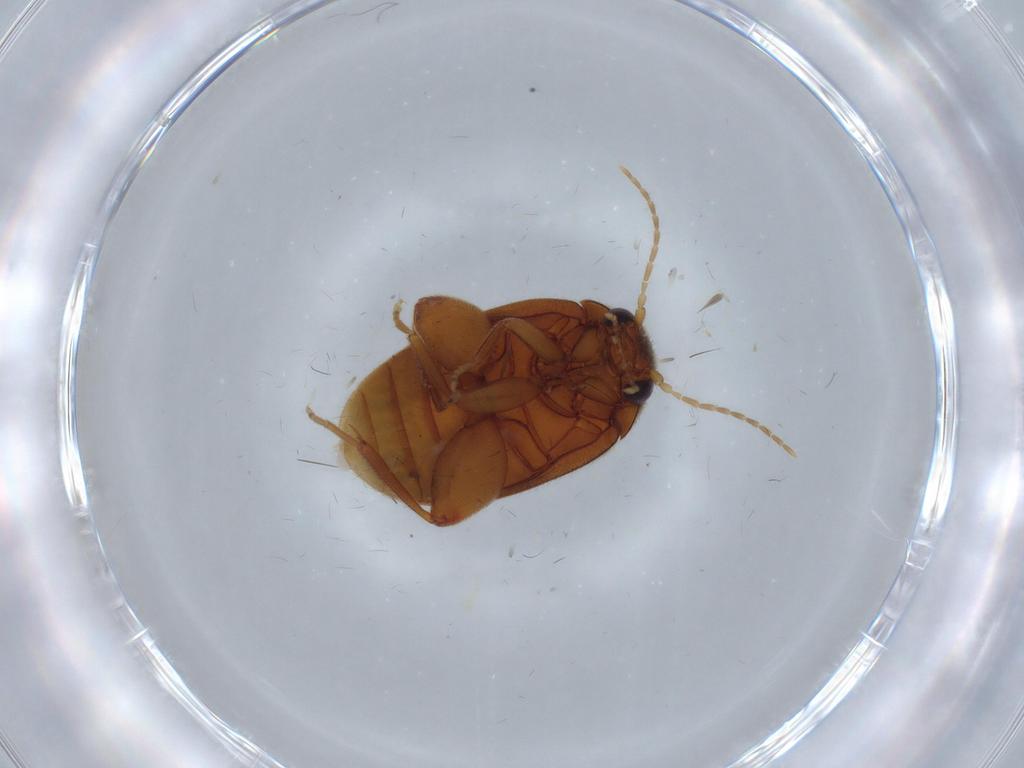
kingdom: Animalia
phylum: Arthropoda
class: Insecta
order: Coleoptera
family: Scirtidae
